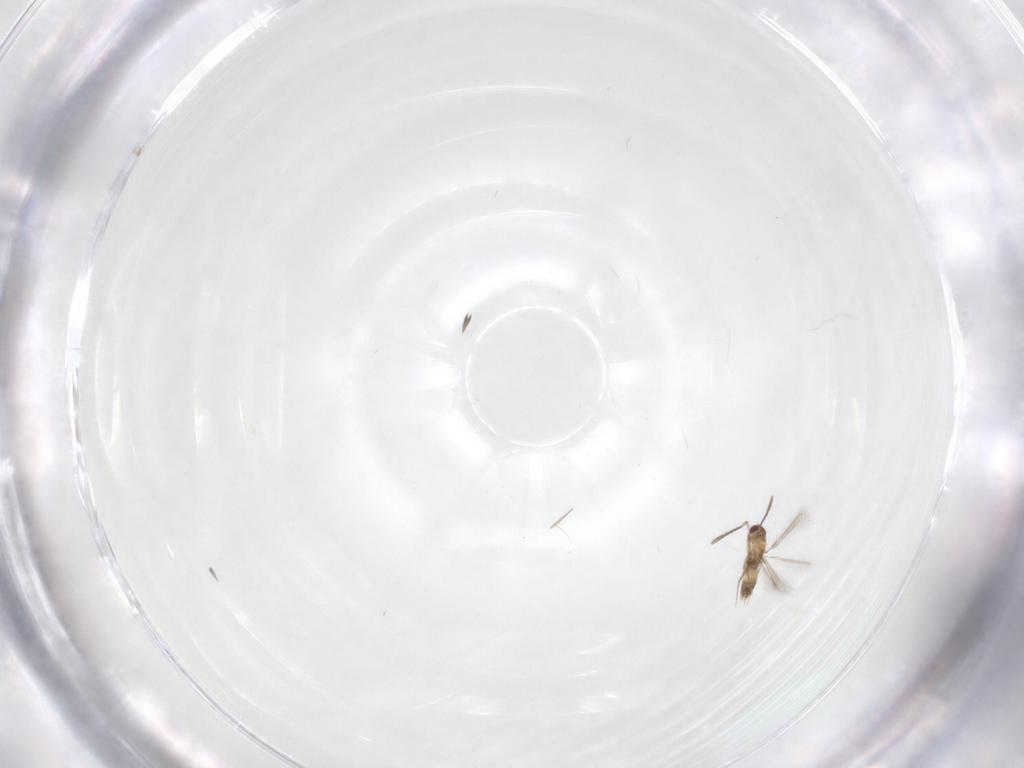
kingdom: Animalia
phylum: Arthropoda
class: Insecta
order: Hymenoptera
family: Mymaridae
